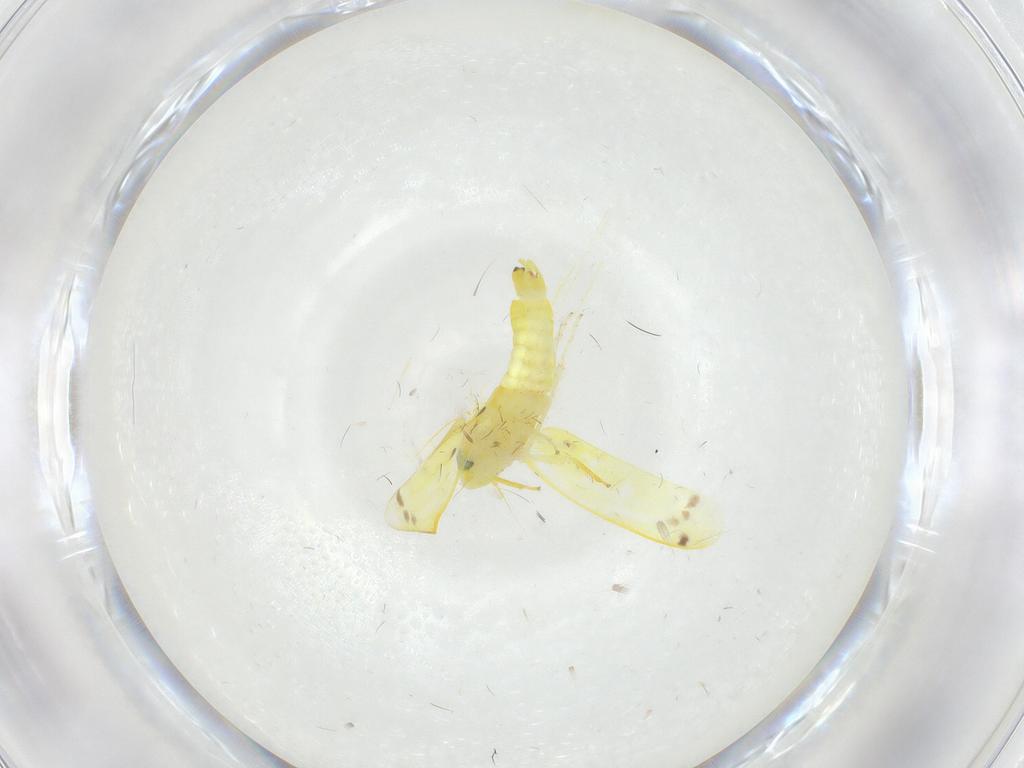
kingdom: Animalia
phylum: Arthropoda
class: Insecta
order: Hemiptera
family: Cicadellidae
